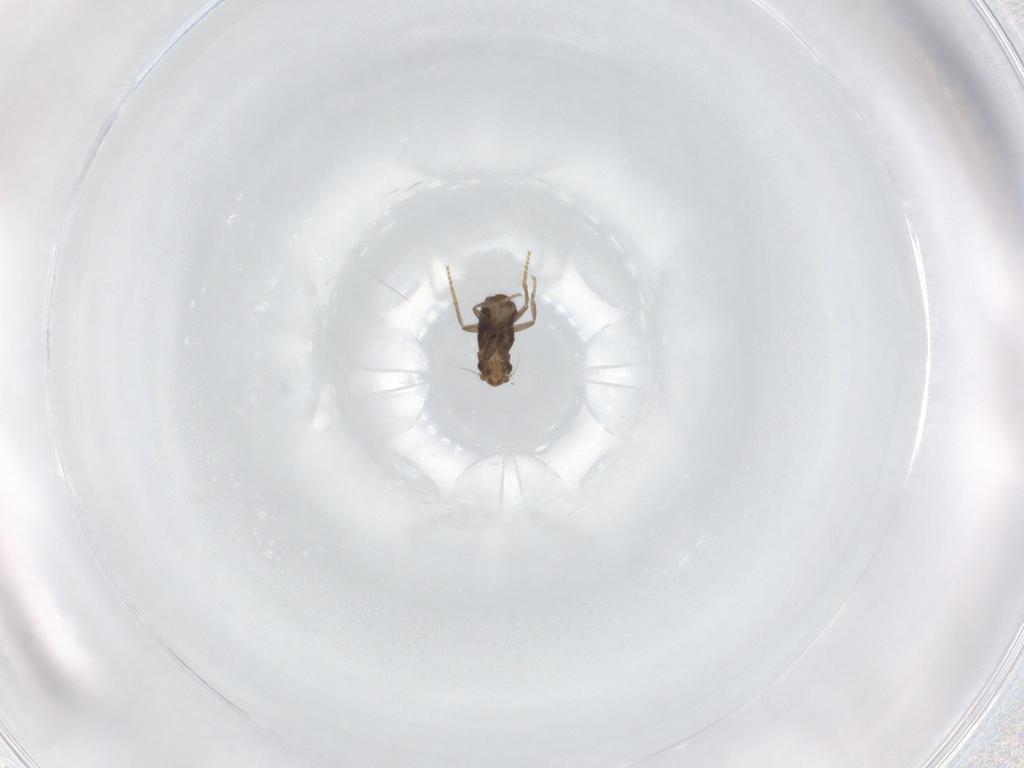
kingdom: Animalia
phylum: Arthropoda
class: Insecta
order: Diptera
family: Phoridae
